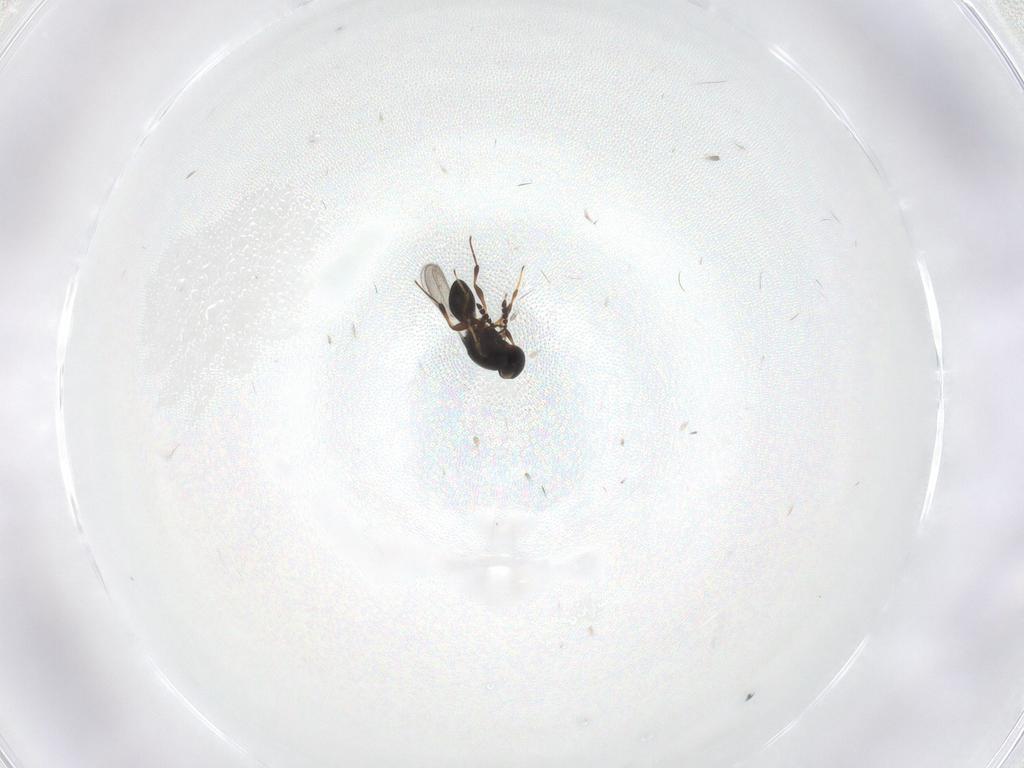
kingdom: Animalia
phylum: Arthropoda
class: Insecta
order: Hymenoptera
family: Platygastridae
